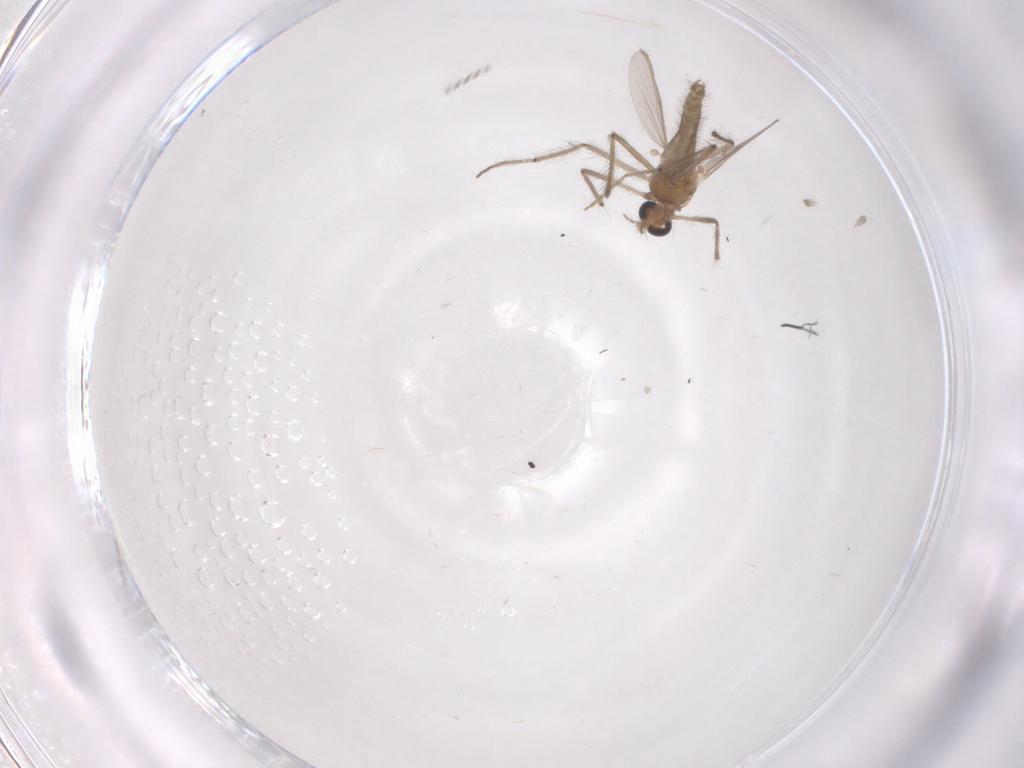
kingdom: Animalia
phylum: Arthropoda
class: Insecta
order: Diptera
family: Chironomidae
